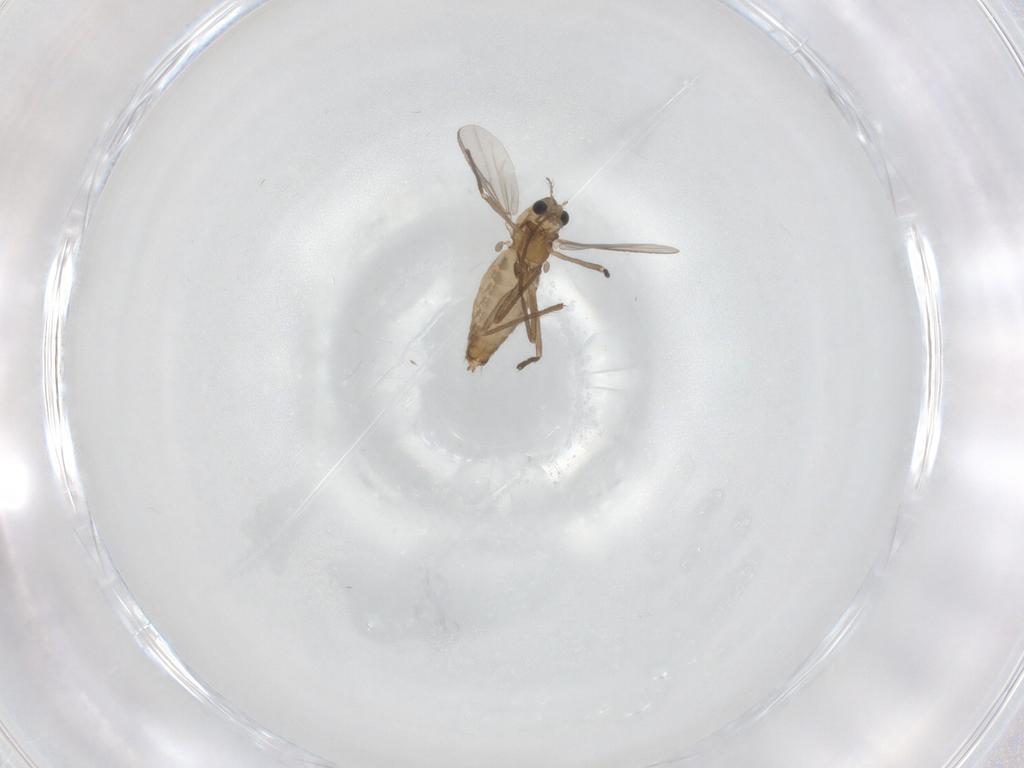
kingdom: Animalia
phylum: Arthropoda
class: Insecta
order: Diptera
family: Chironomidae
